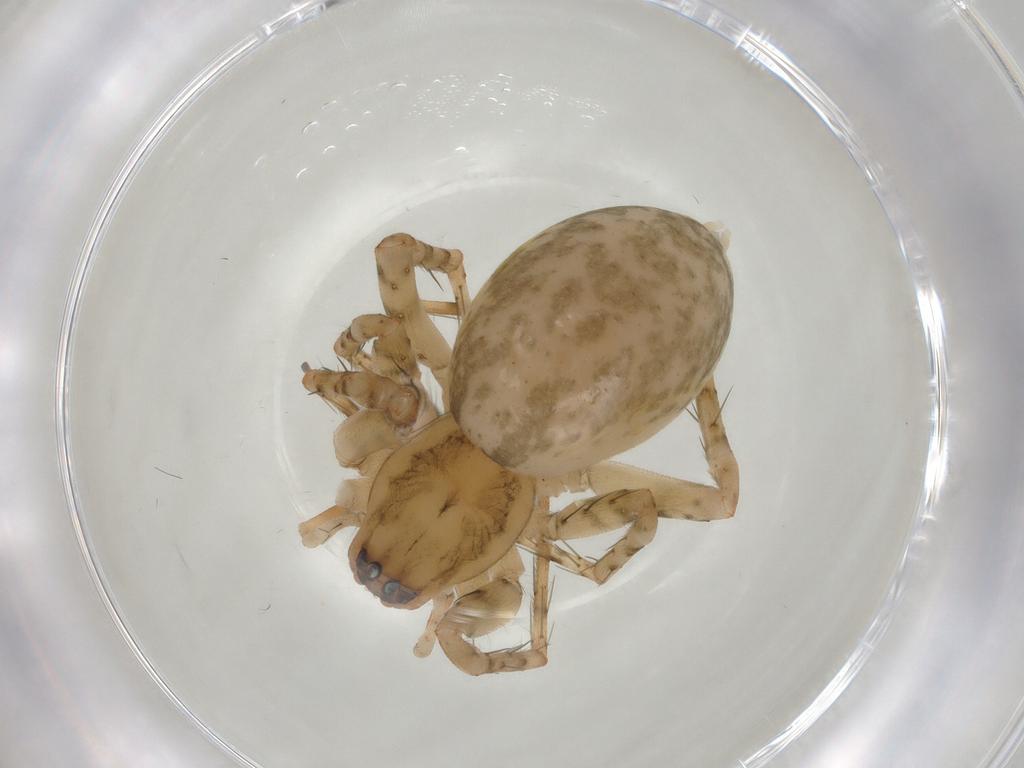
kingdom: Animalia
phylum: Arthropoda
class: Arachnida
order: Araneae
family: Anyphaenidae
